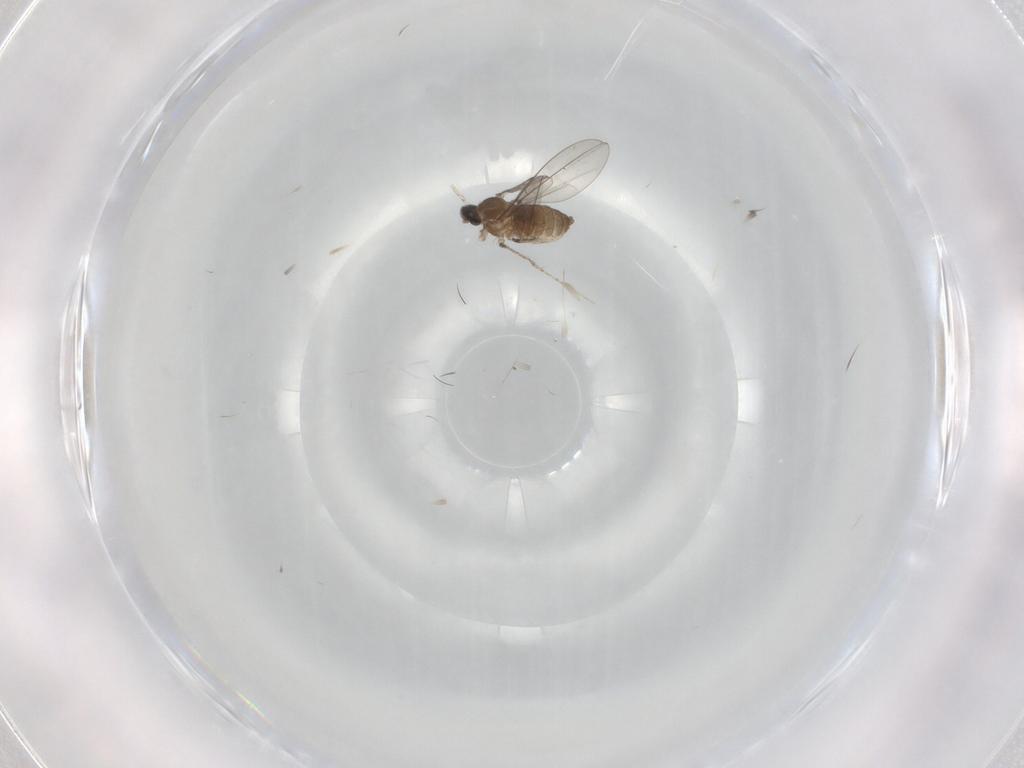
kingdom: Animalia
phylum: Arthropoda
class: Insecta
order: Diptera
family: Cecidomyiidae
